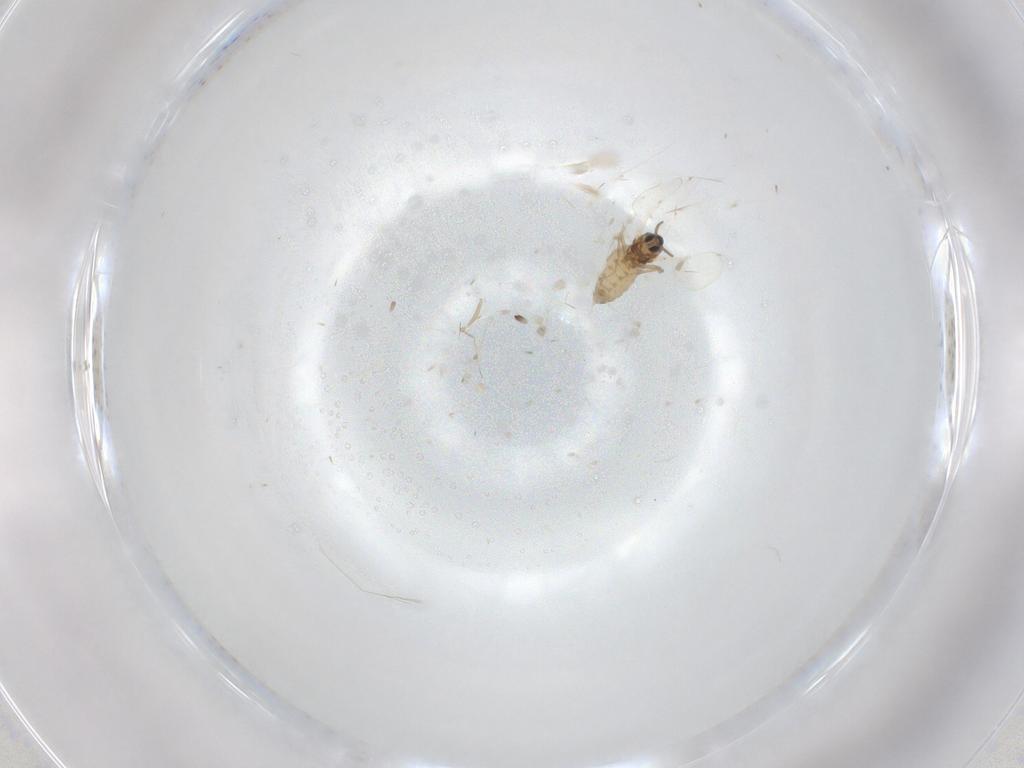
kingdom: Animalia
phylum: Arthropoda
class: Insecta
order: Diptera
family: Cecidomyiidae
